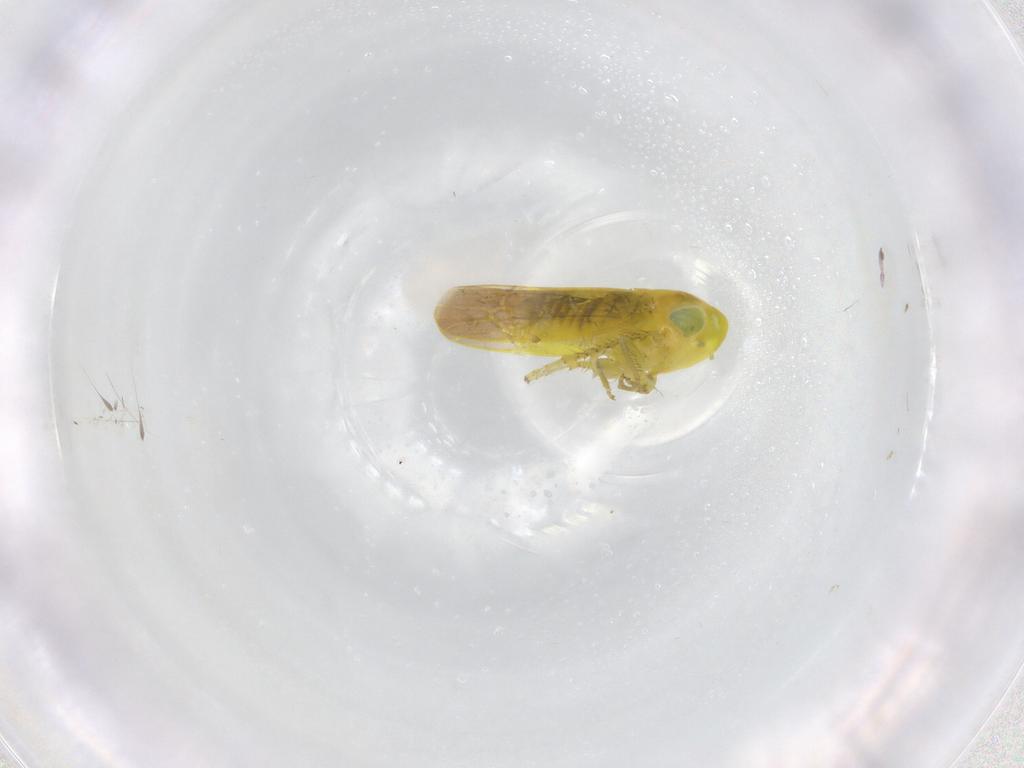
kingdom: Animalia
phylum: Arthropoda
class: Insecta
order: Hemiptera
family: Cicadellidae
